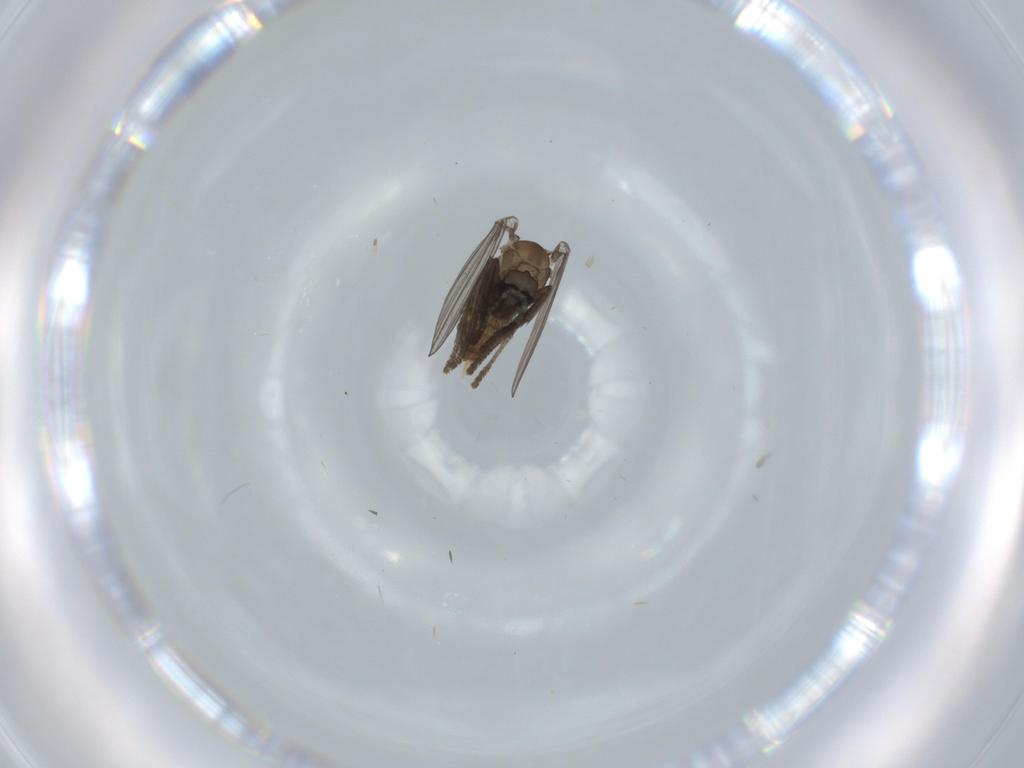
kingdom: Animalia
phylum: Arthropoda
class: Insecta
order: Diptera
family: Psychodidae
